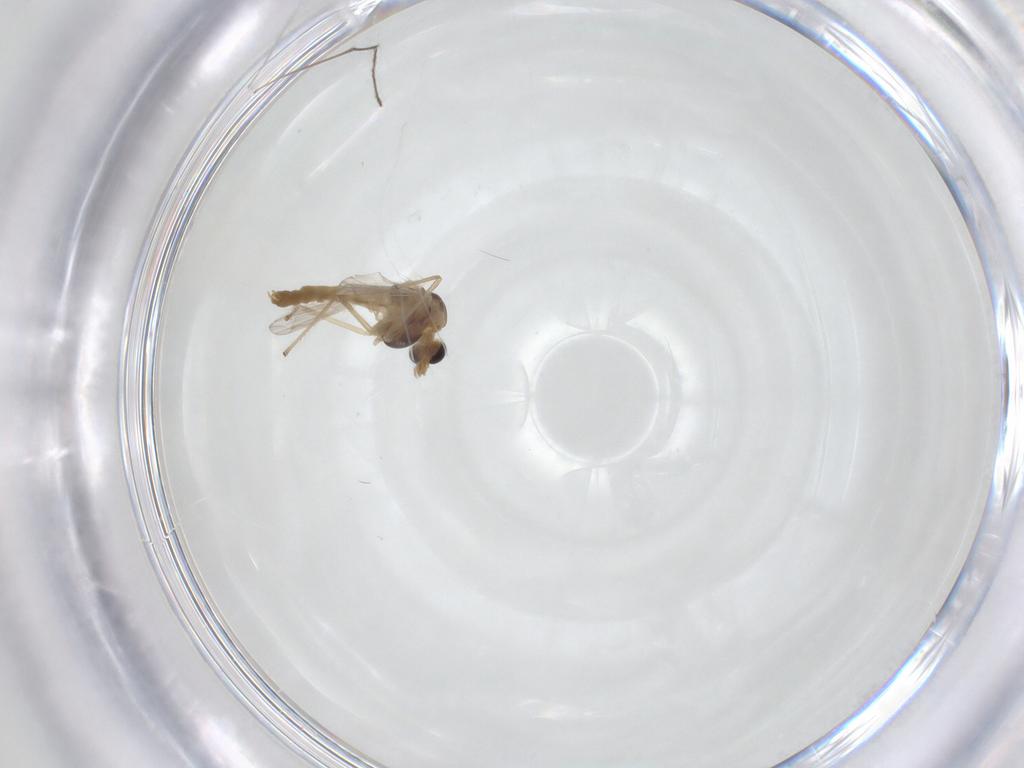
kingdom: Animalia
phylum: Arthropoda
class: Insecta
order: Diptera
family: Chironomidae
